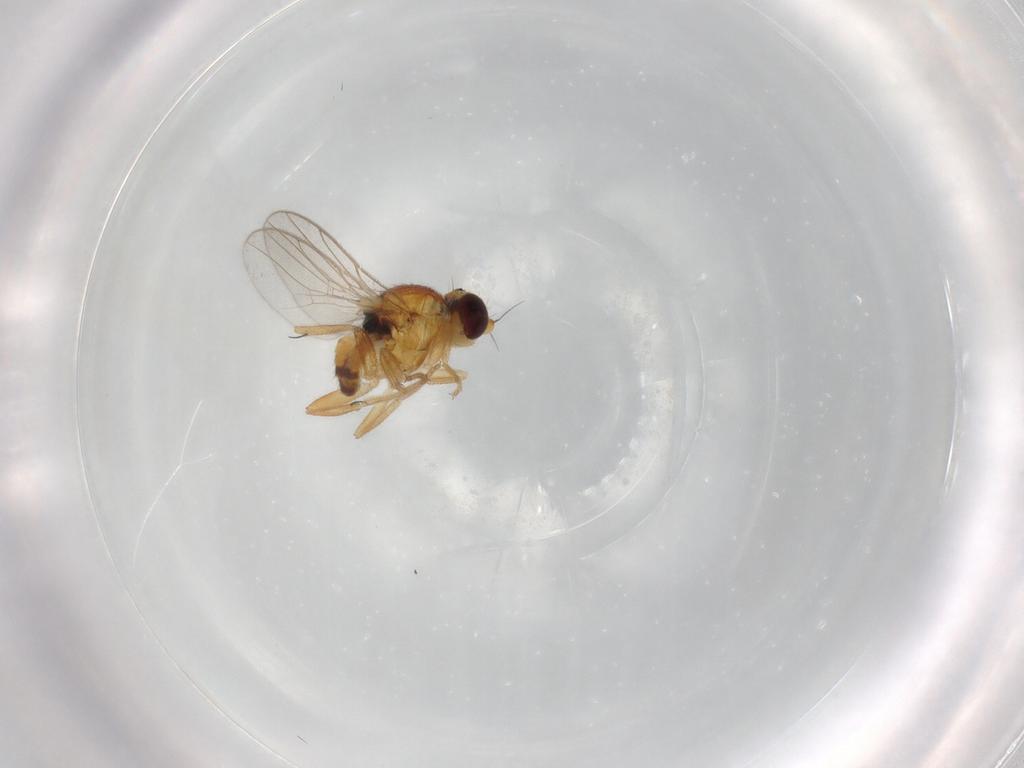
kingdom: Animalia
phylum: Arthropoda
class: Insecta
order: Diptera
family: Chloropidae
